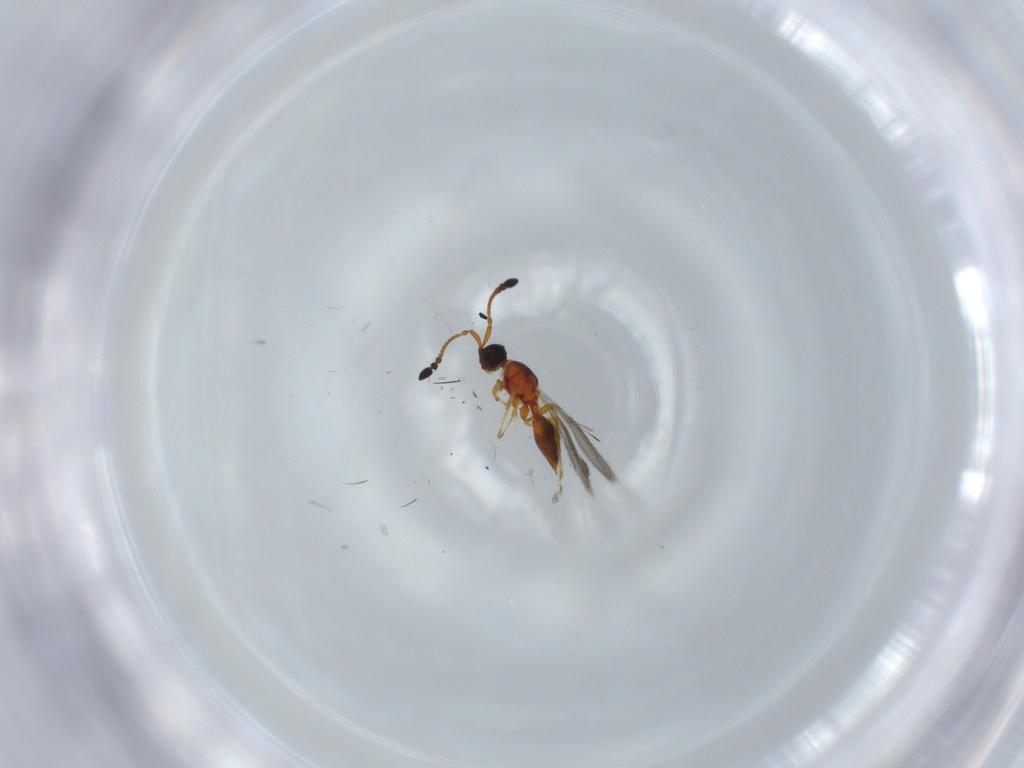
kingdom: Animalia
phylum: Arthropoda
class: Insecta
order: Hymenoptera
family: Diapriidae
